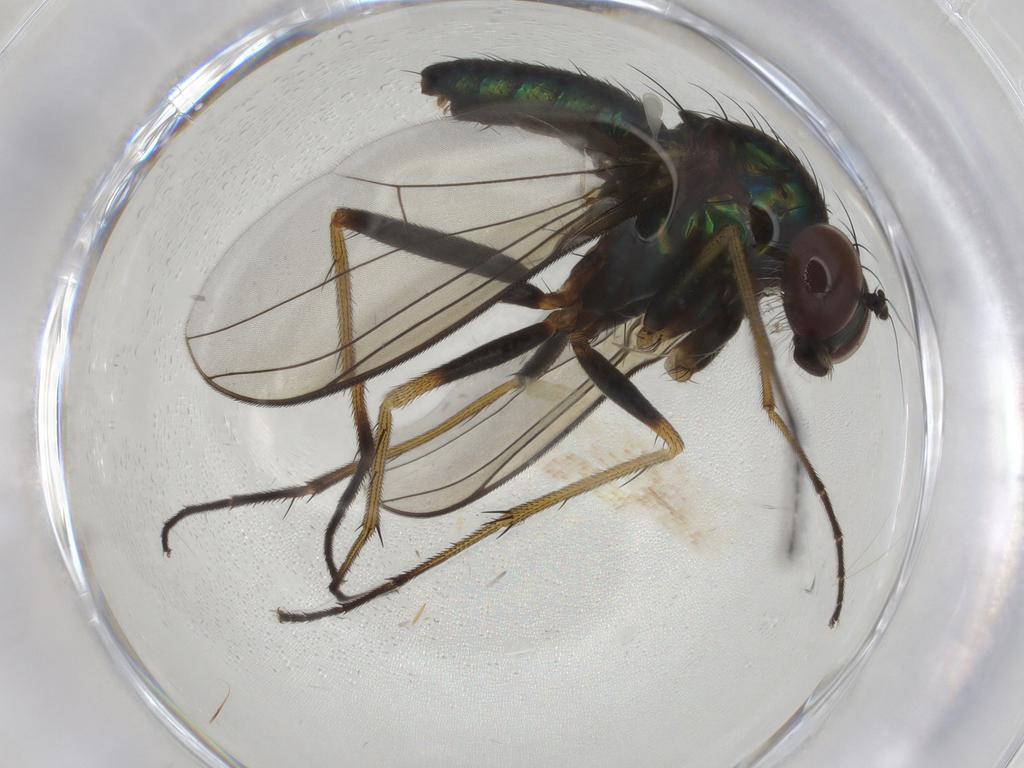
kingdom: Animalia
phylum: Arthropoda
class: Insecta
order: Diptera
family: Dolichopodidae
